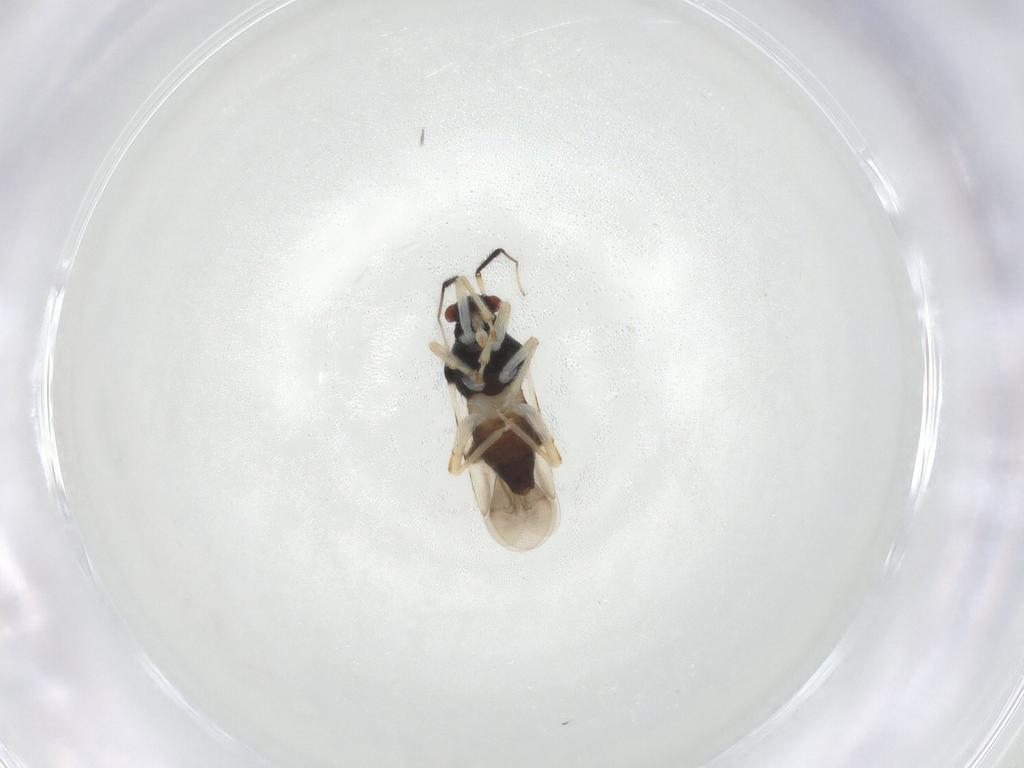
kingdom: Animalia
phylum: Arthropoda
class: Insecta
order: Hemiptera
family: Miridae
